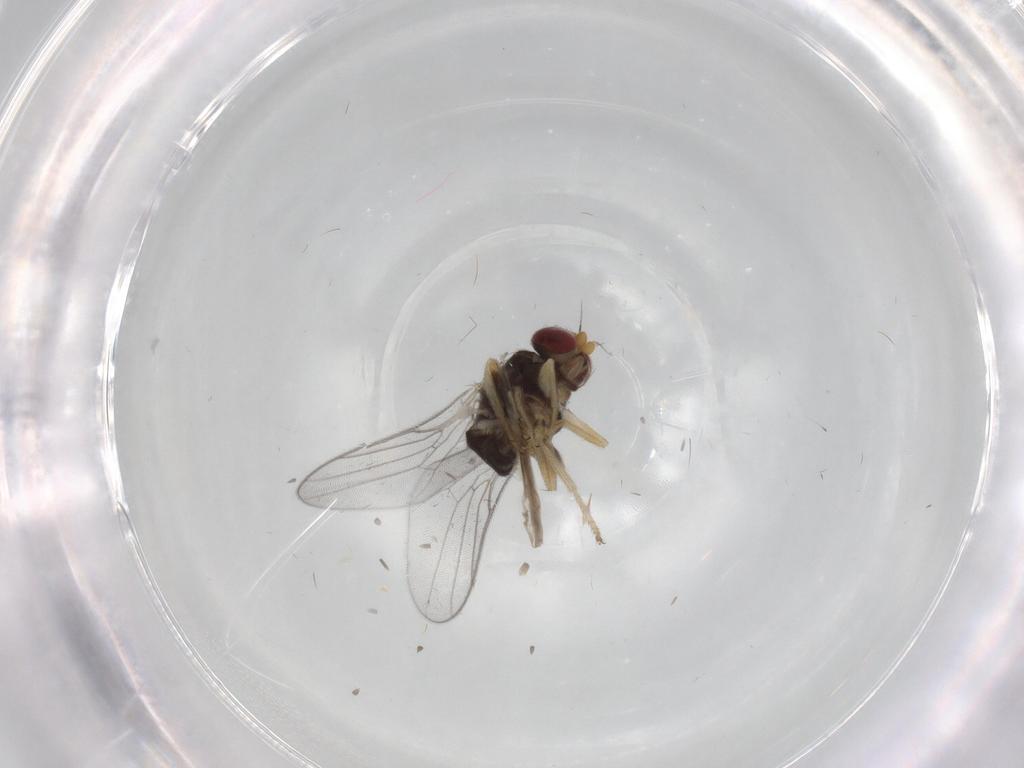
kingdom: Animalia
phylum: Arthropoda
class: Insecta
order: Diptera
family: Chloropidae
